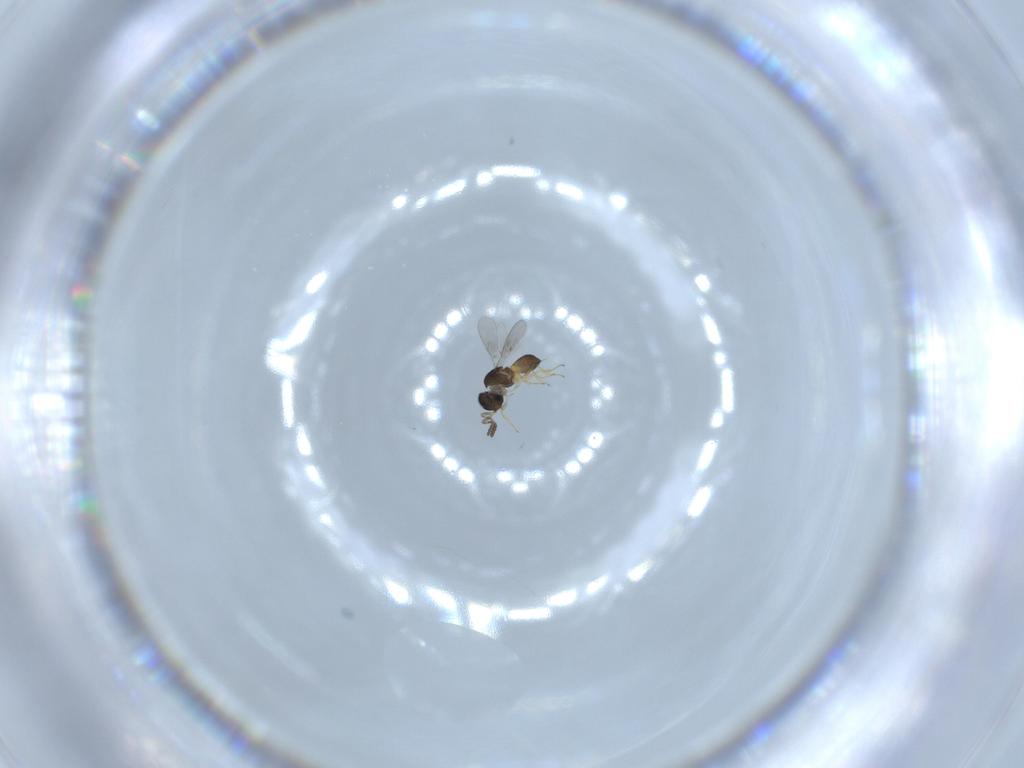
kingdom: Animalia
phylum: Arthropoda
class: Insecta
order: Hymenoptera
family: Scelionidae
